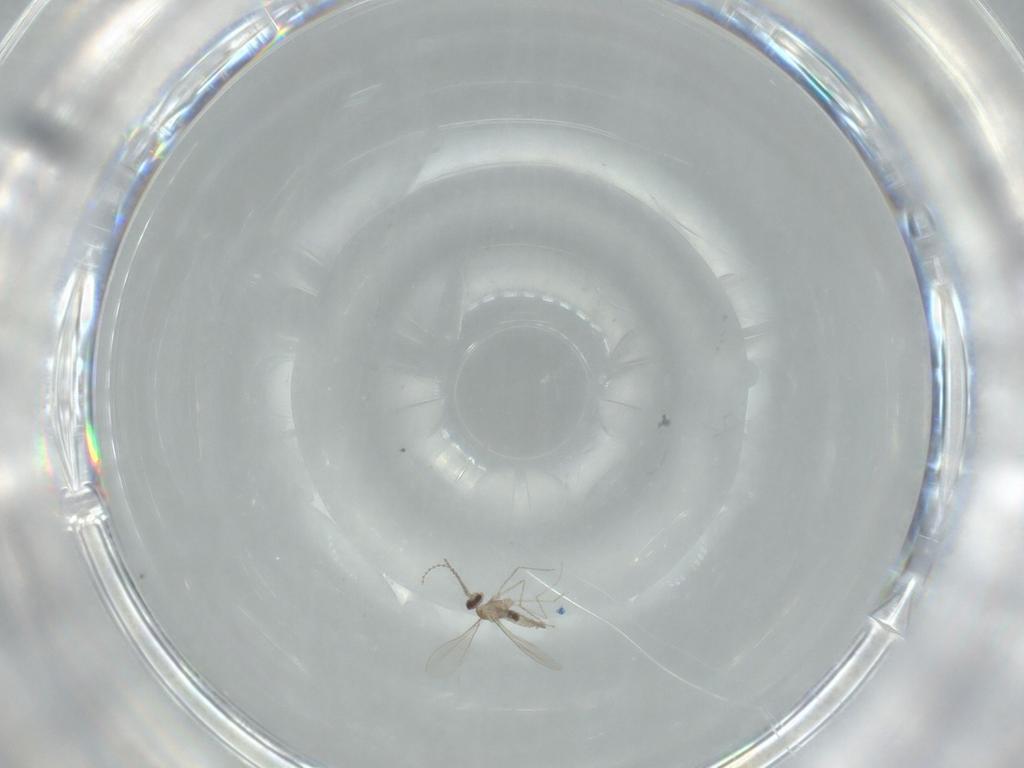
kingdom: Animalia
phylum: Arthropoda
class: Insecta
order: Diptera
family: Cecidomyiidae
